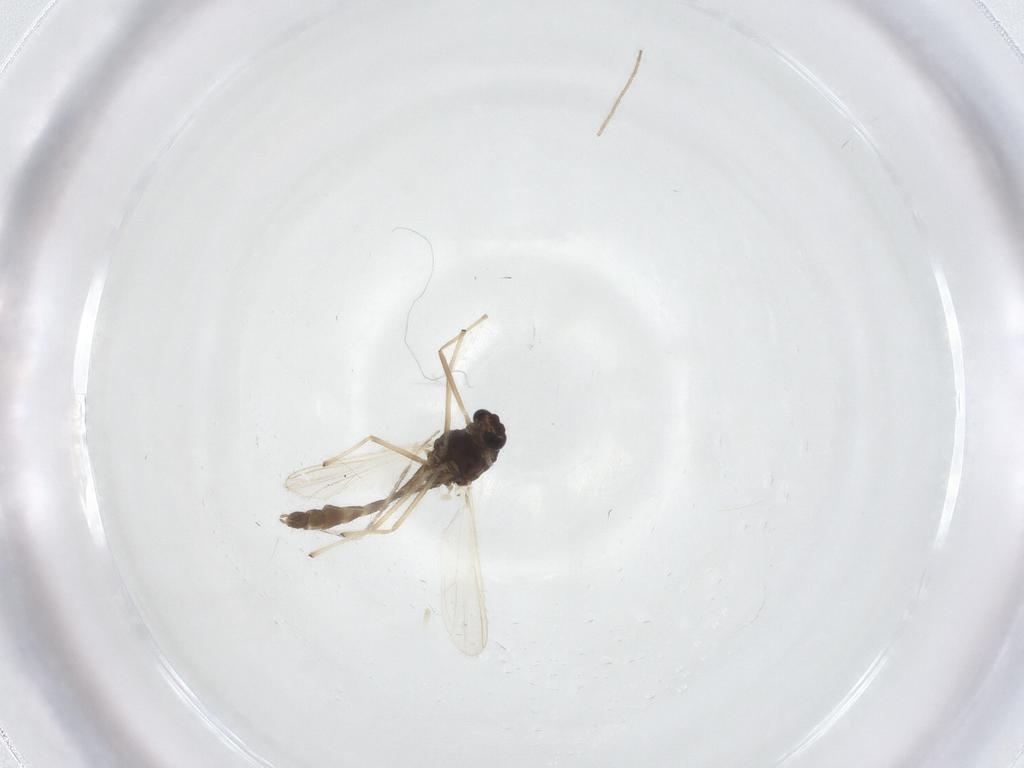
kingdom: Animalia
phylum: Arthropoda
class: Insecta
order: Diptera
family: Chironomidae
